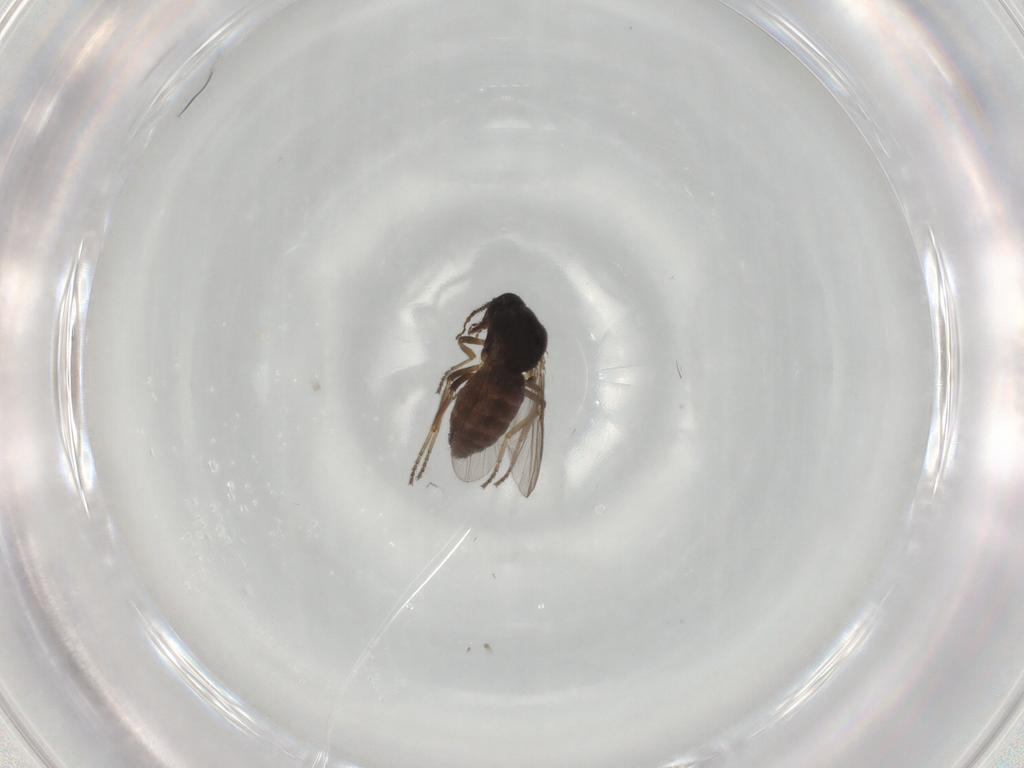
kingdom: Animalia
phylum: Arthropoda
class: Insecta
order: Diptera
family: Ceratopogonidae
